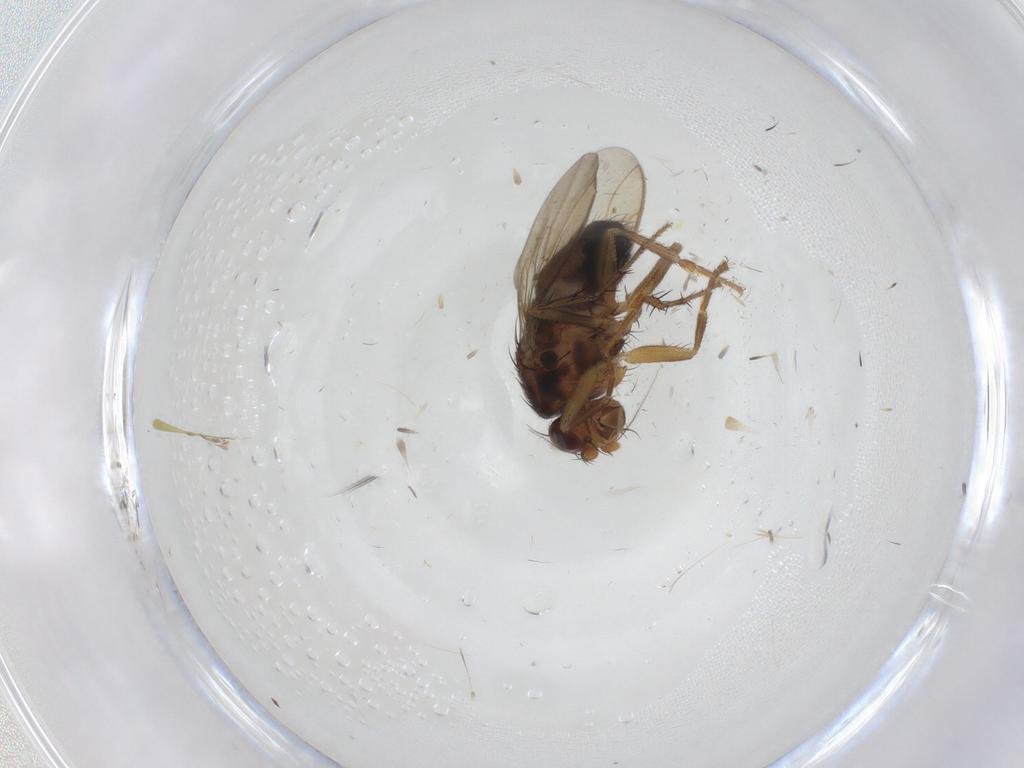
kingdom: Animalia
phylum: Arthropoda
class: Insecta
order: Diptera
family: Sphaeroceridae
